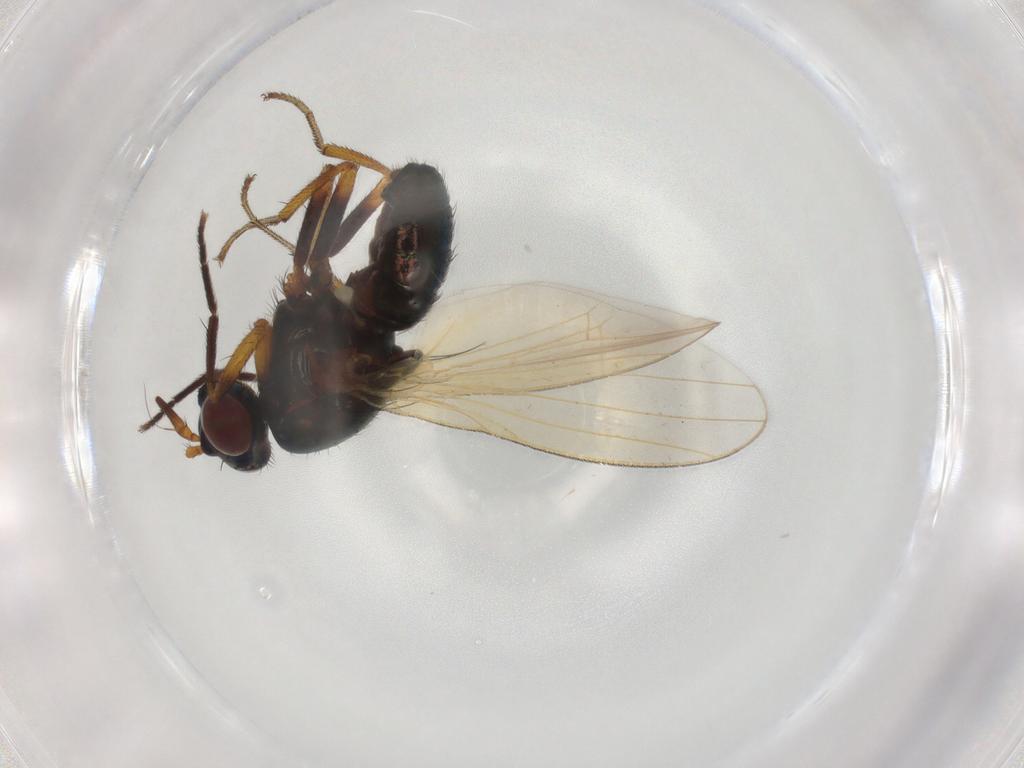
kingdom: Animalia
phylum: Arthropoda
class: Insecta
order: Diptera
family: Lauxaniidae
